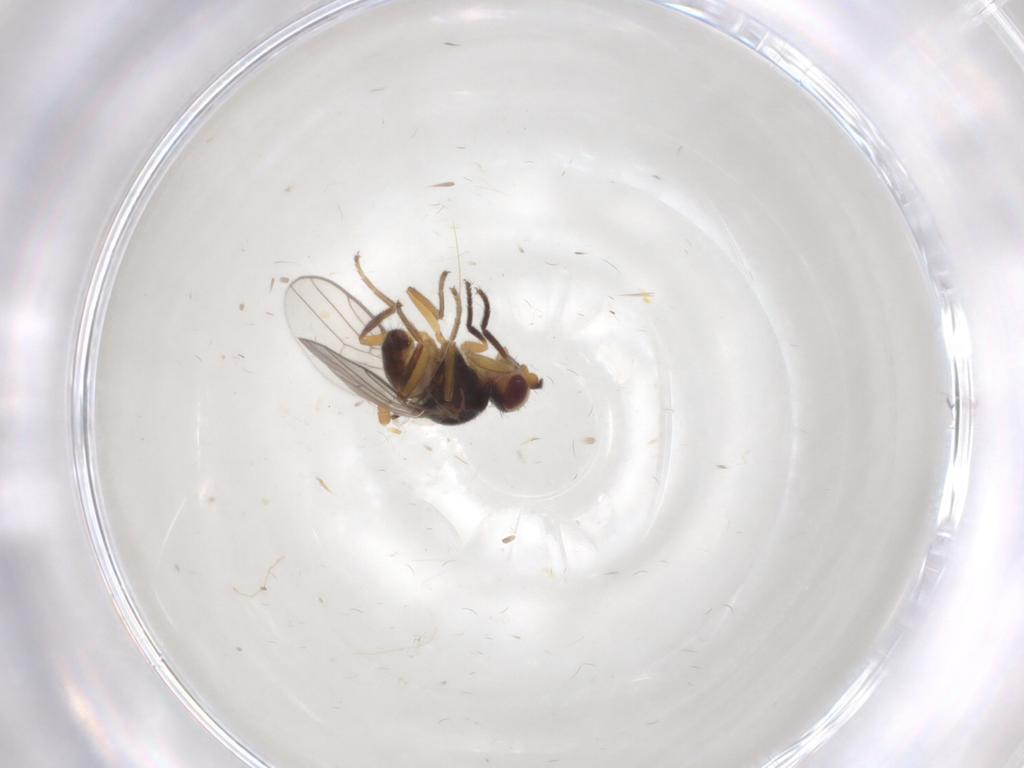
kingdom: Animalia
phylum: Arthropoda
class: Insecta
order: Diptera
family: Chloropidae
